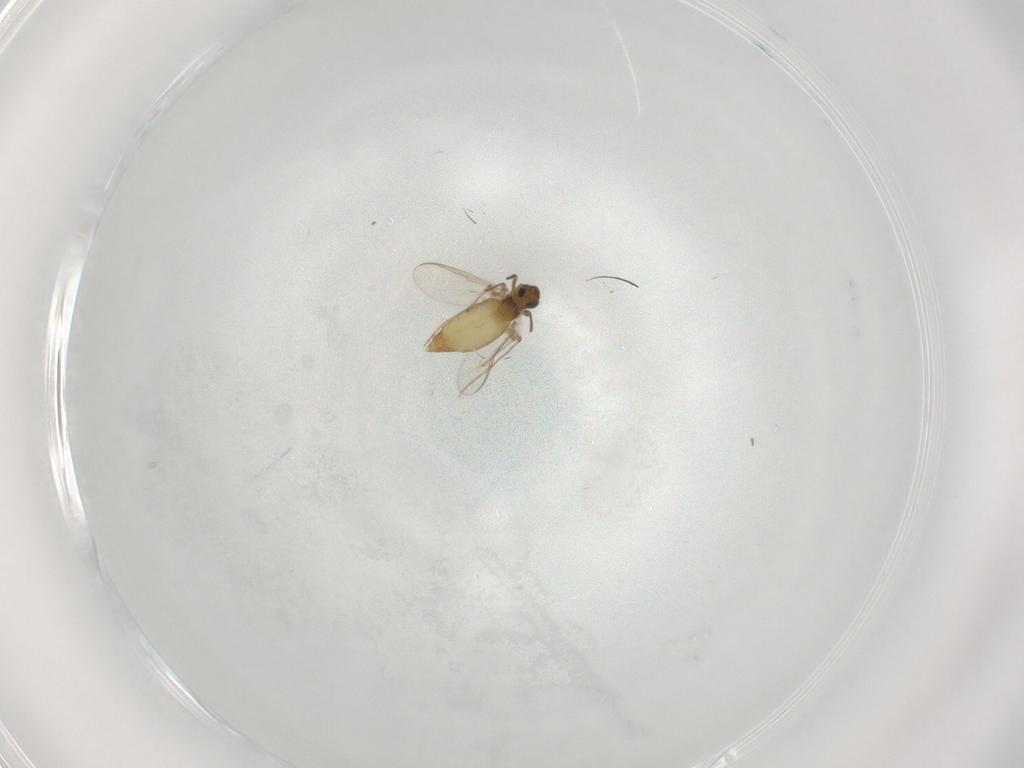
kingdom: Animalia
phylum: Arthropoda
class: Insecta
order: Diptera
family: Chironomidae
